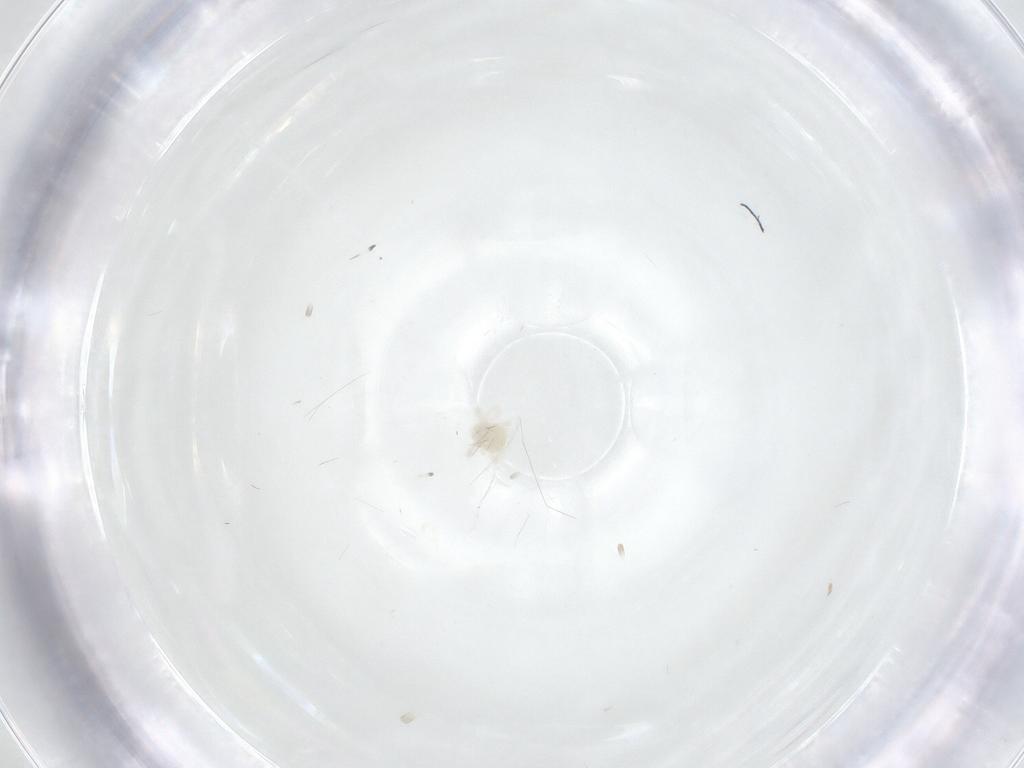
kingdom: Animalia
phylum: Arthropoda
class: Arachnida
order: Trombidiformes
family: Anystidae
